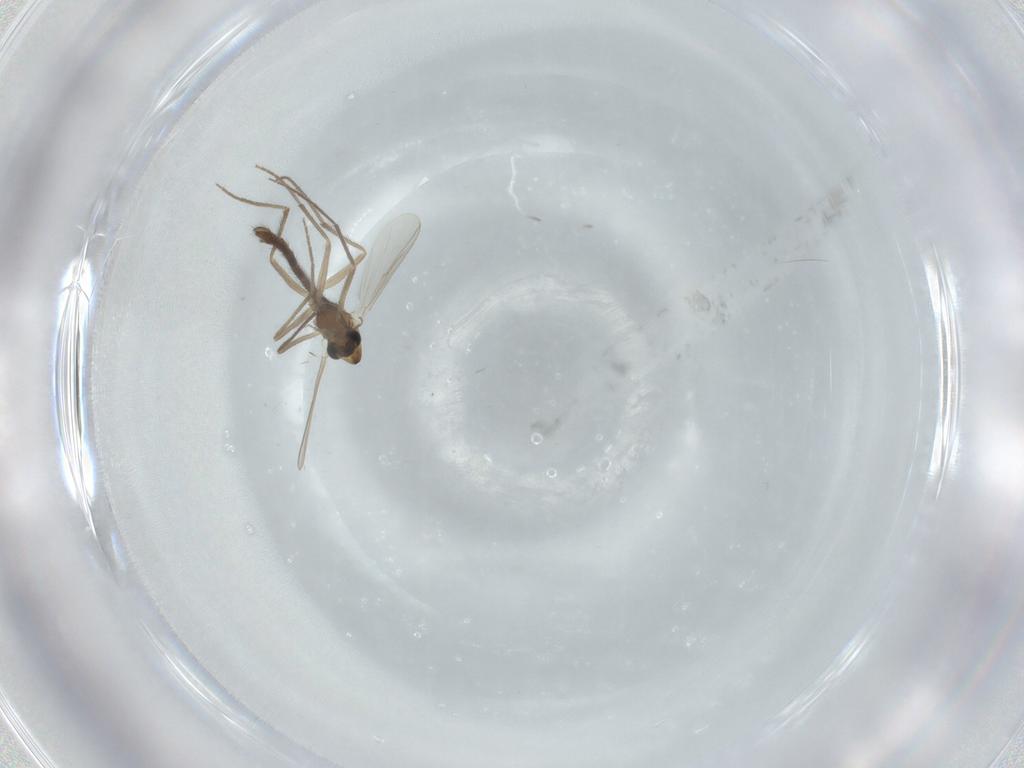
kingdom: Animalia
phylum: Arthropoda
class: Insecta
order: Diptera
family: Chironomidae
